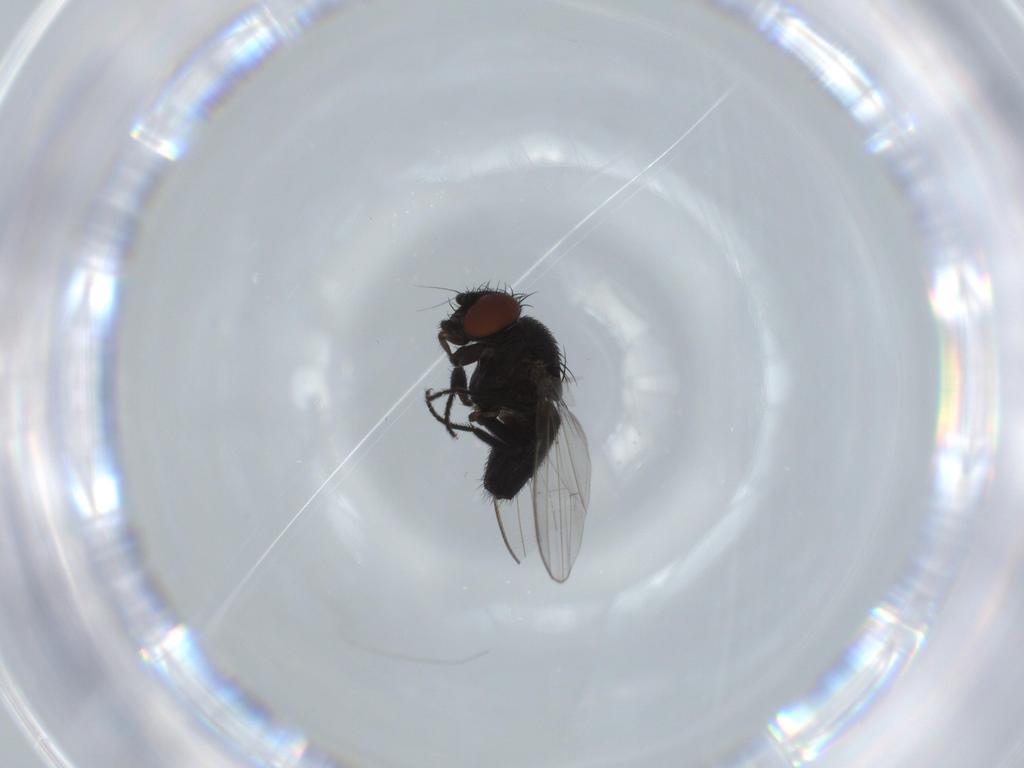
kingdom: Animalia
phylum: Arthropoda
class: Insecta
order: Diptera
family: Milichiidae
